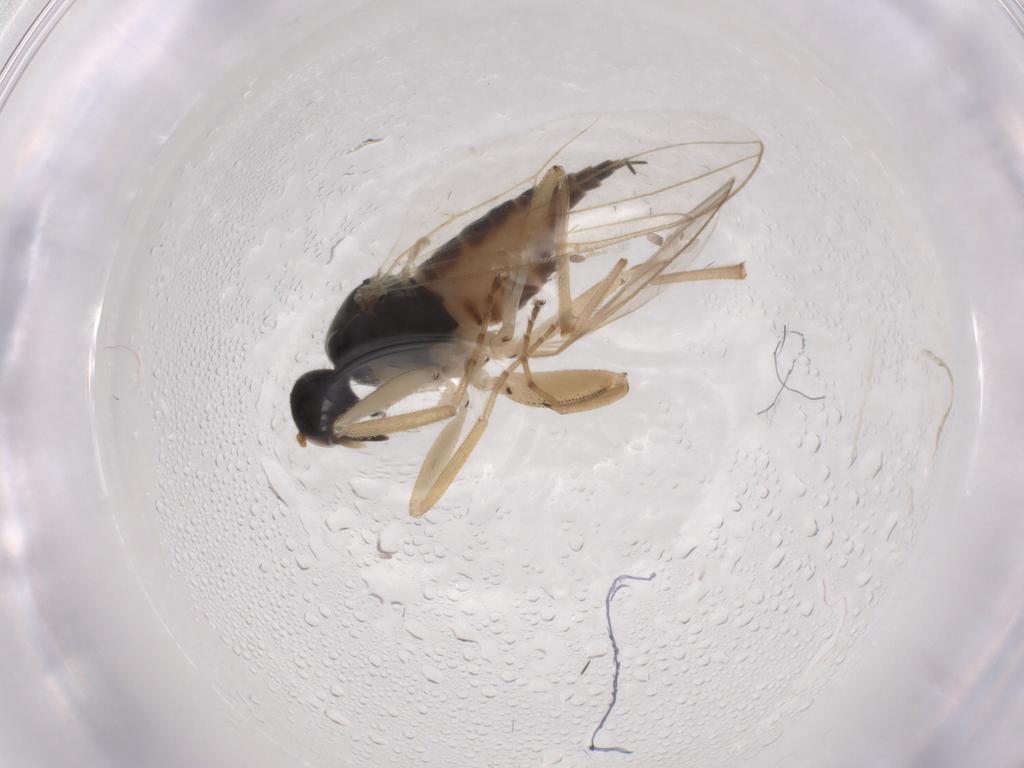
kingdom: Animalia
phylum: Arthropoda
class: Insecta
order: Diptera
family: Hybotidae
